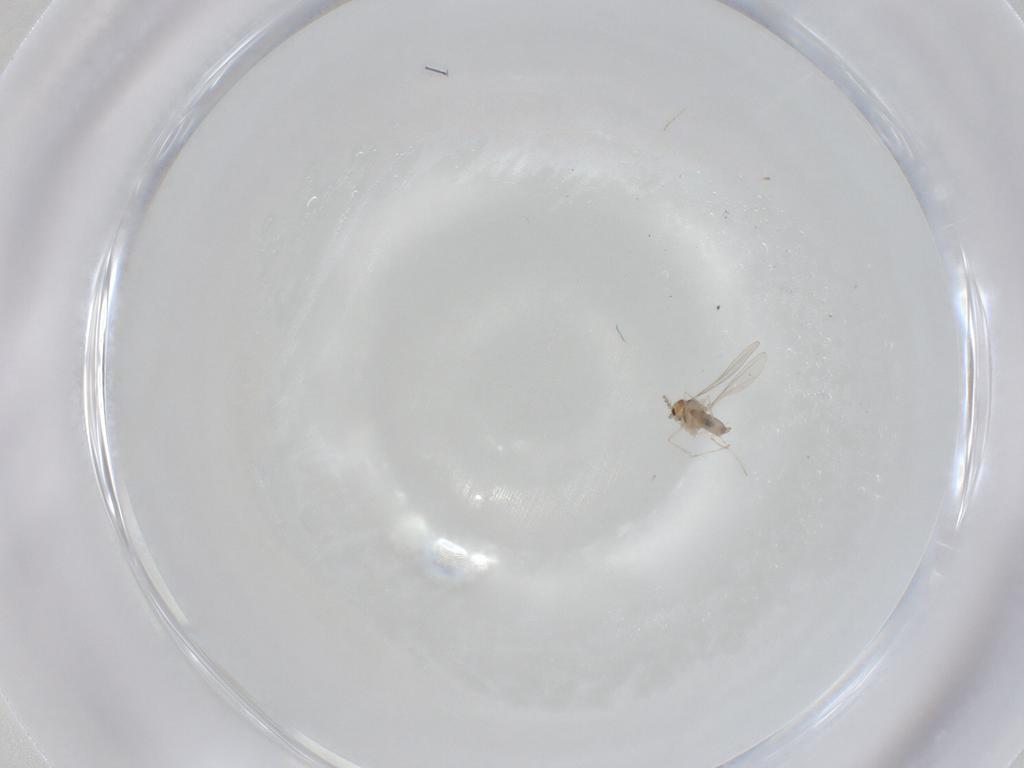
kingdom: Animalia
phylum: Arthropoda
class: Insecta
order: Diptera
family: Cecidomyiidae
